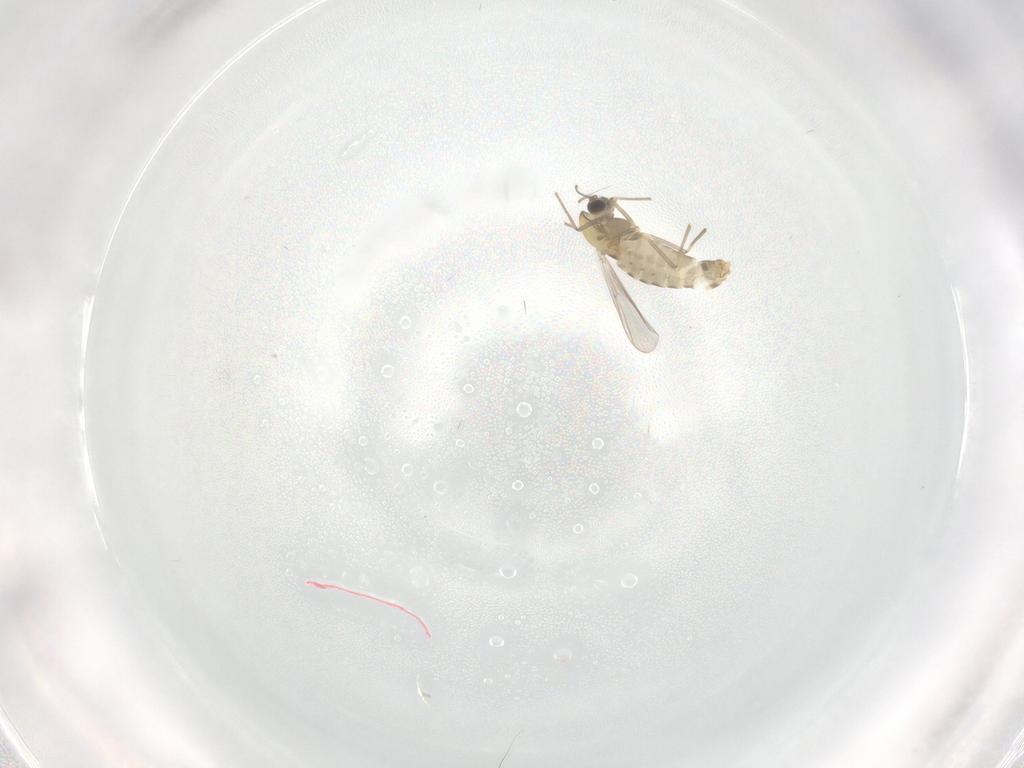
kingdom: Animalia
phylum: Arthropoda
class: Insecta
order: Diptera
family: Chironomidae
